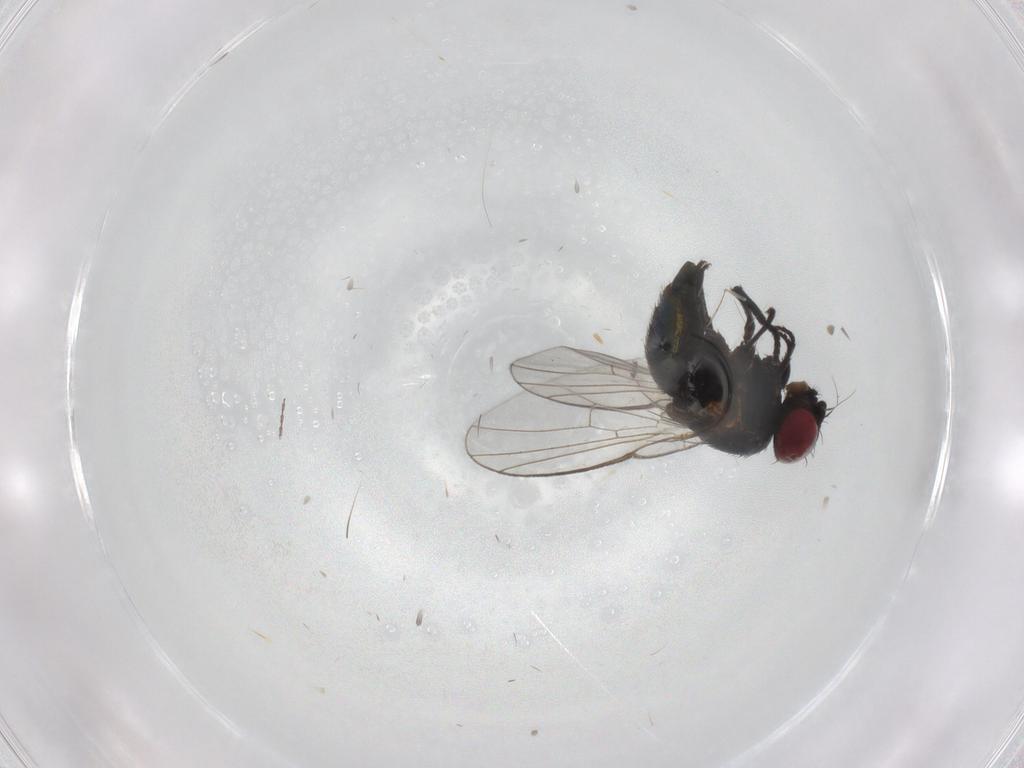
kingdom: Animalia
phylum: Arthropoda
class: Insecta
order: Diptera
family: Agromyzidae
